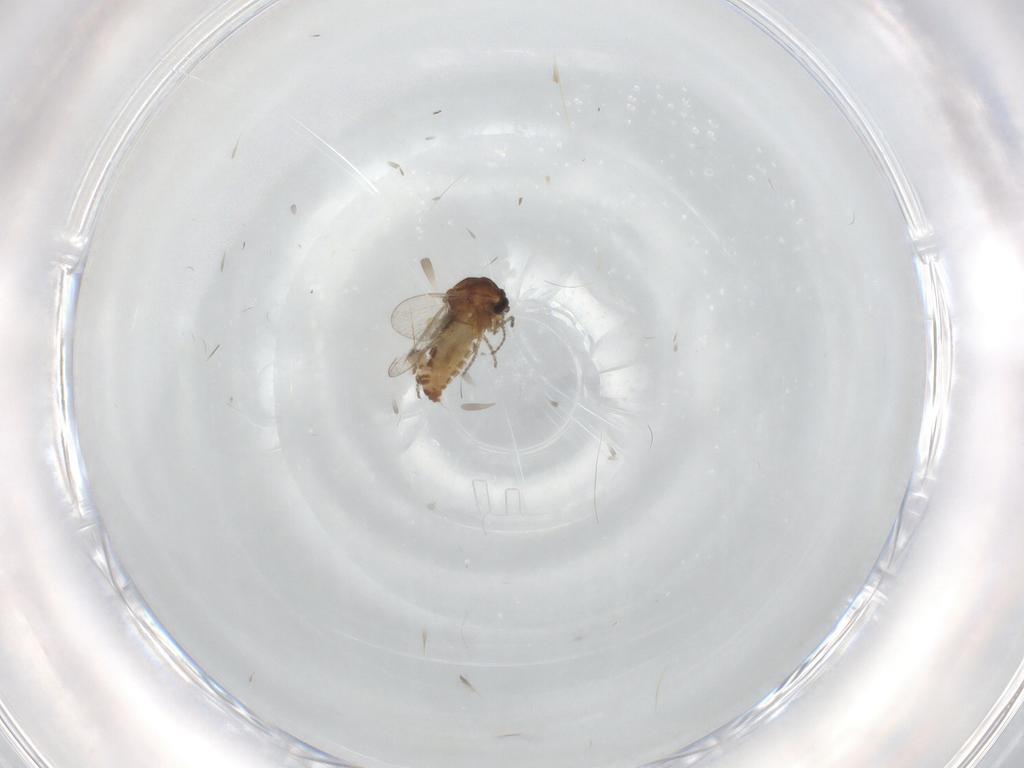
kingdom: Animalia
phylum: Arthropoda
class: Insecta
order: Diptera
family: Ceratopogonidae
